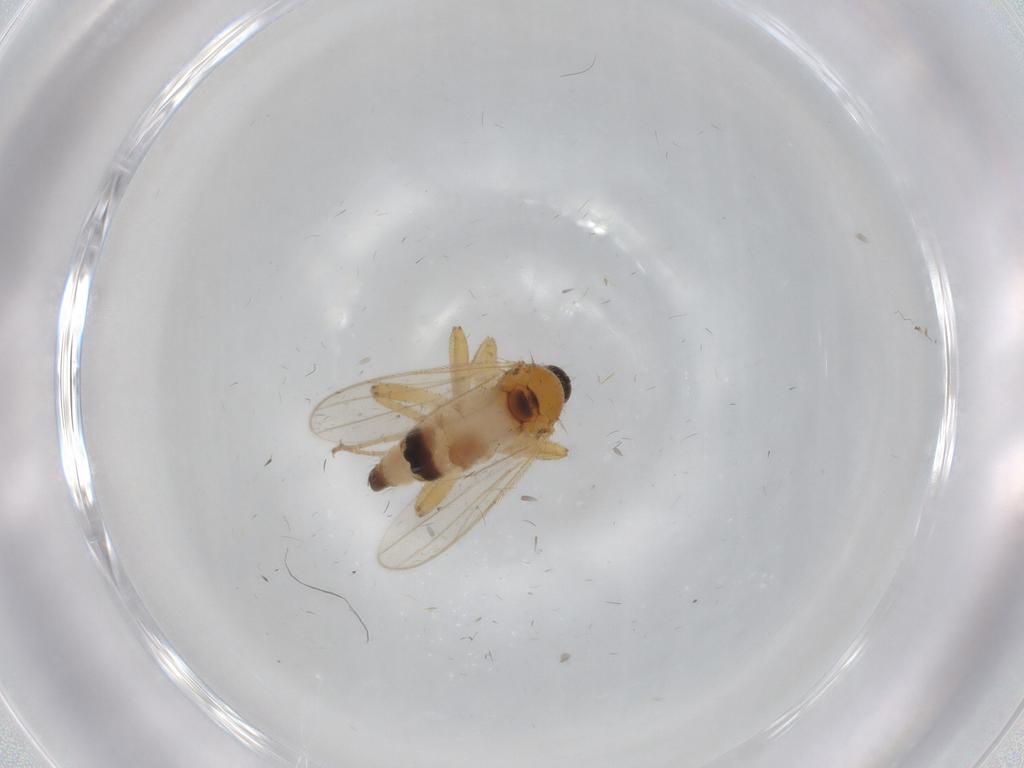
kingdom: Animalia
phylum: Arthropoda
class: Insecta
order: Diptera
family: Hybotidae
